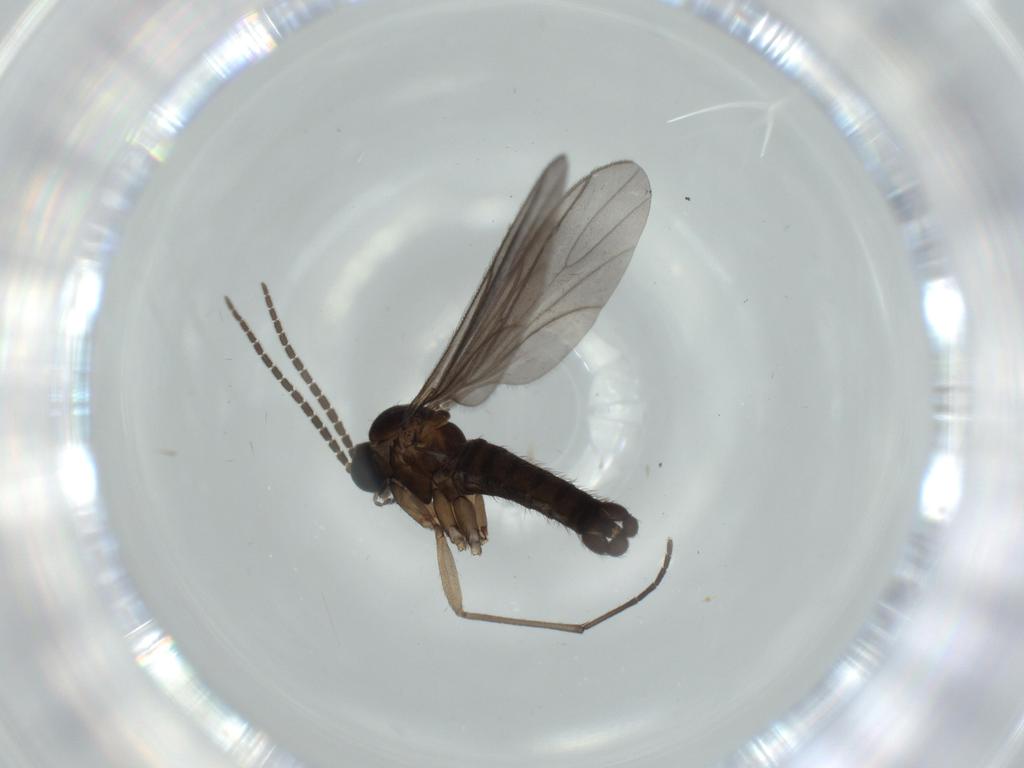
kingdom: Animalia
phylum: Arthropoda
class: Insecta
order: Diptera
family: Sciaridae
